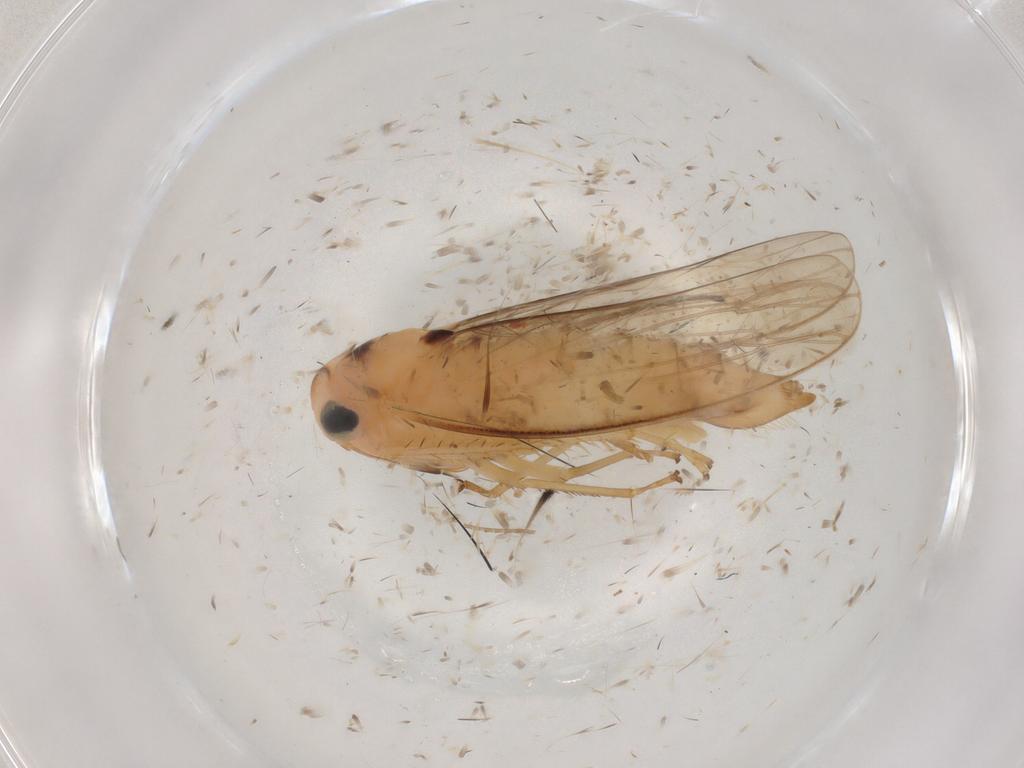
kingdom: Animalia
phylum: Arthropoda
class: Insecta
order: Hemiptera
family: Cicadellidae
